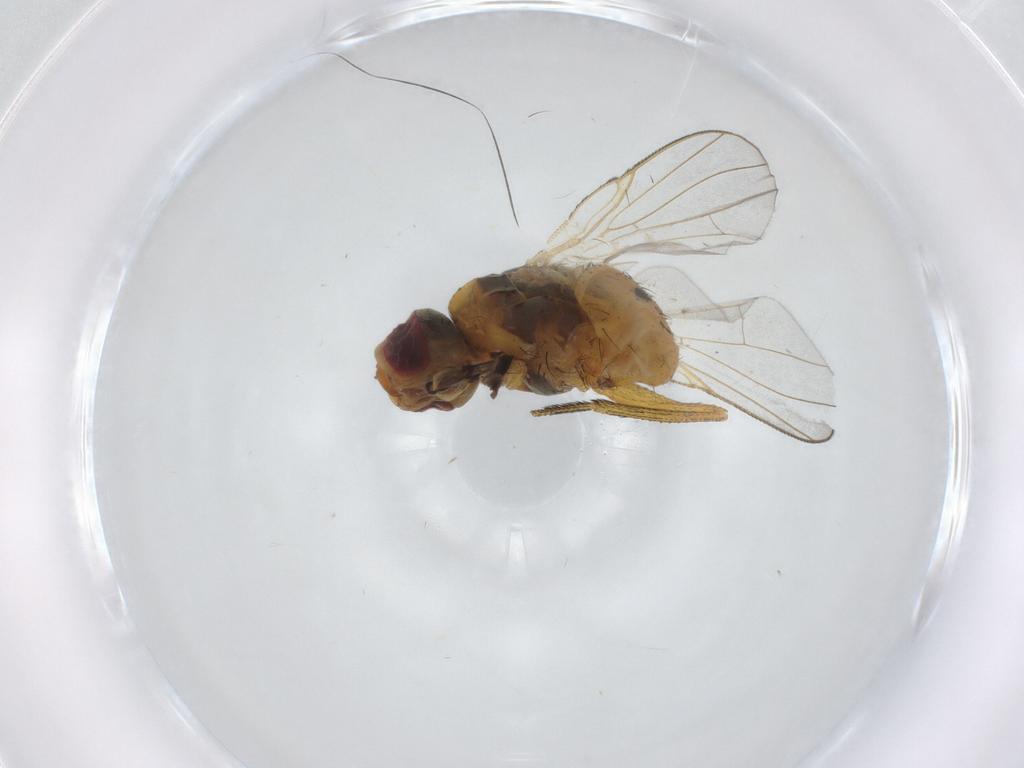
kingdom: Animalia
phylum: Arthropoda
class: Insecta
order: Diptera
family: Muscidae
